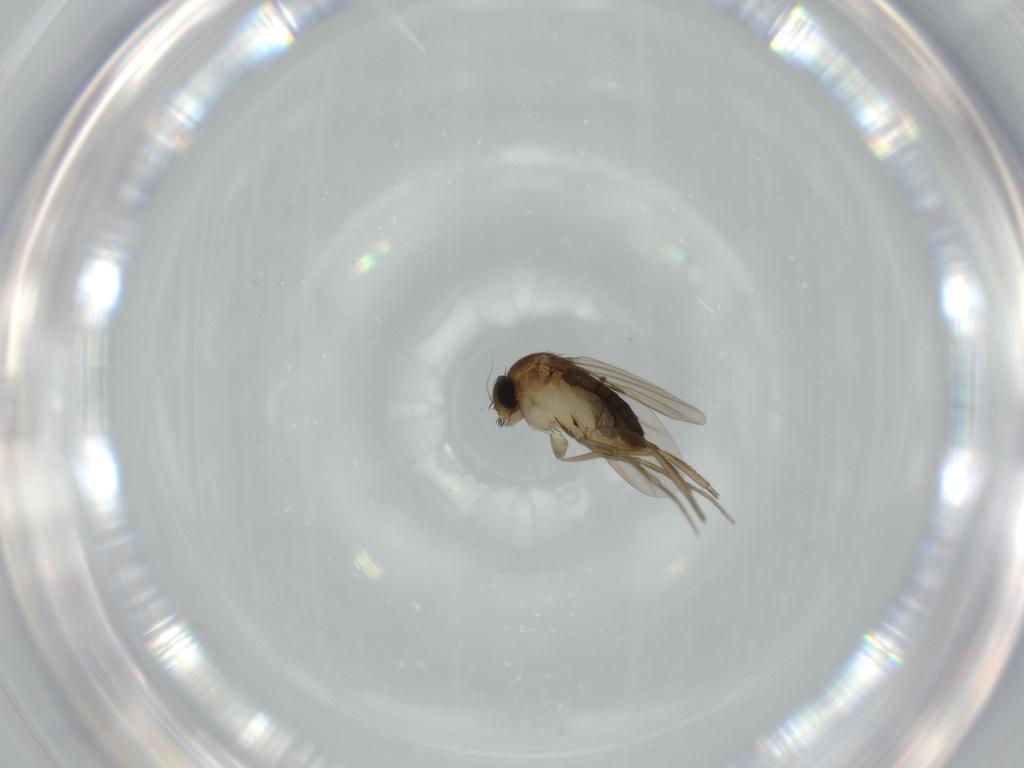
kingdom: Animalia
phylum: Arthropoda
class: Insecta
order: Diptera
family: Phoridae
